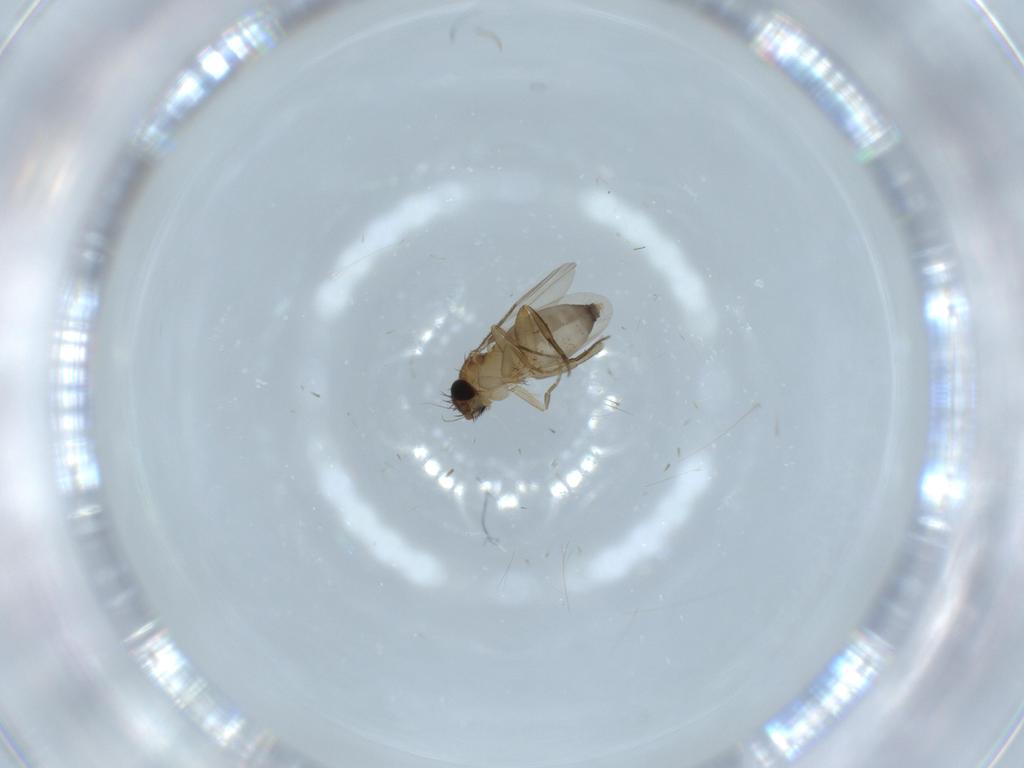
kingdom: Animalia
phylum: Arthropoda
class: Insecta
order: Diptera
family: Phoridae
